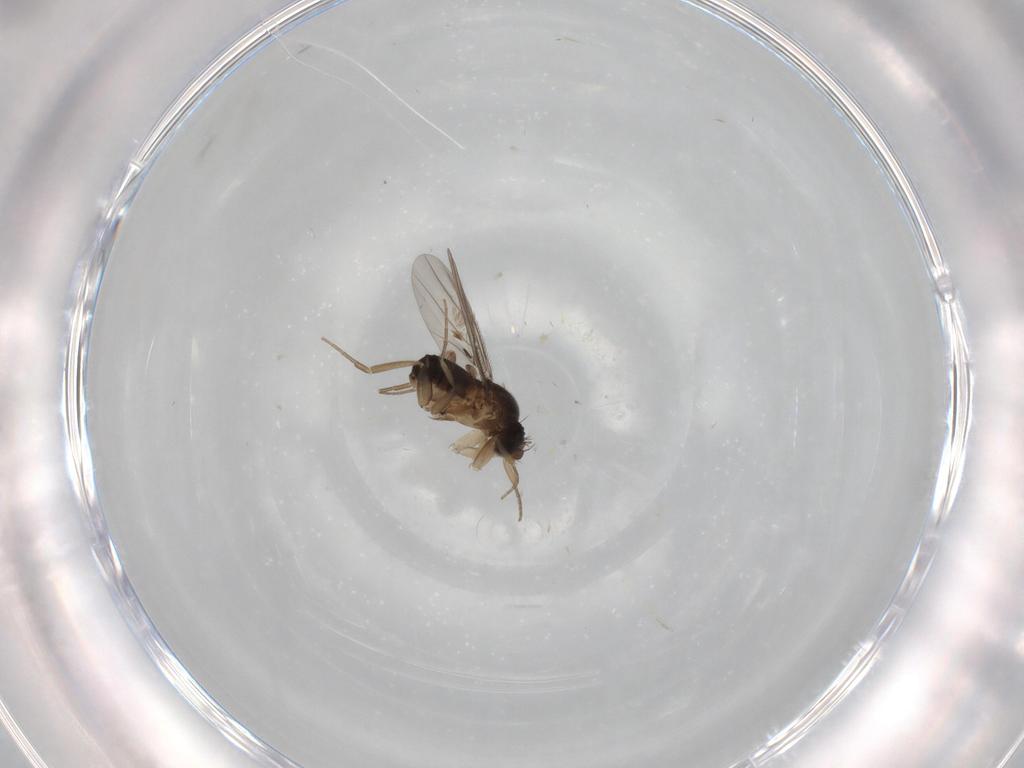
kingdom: Animalia
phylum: Arthropoda
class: Insecta
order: Diptera
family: Phoridae
